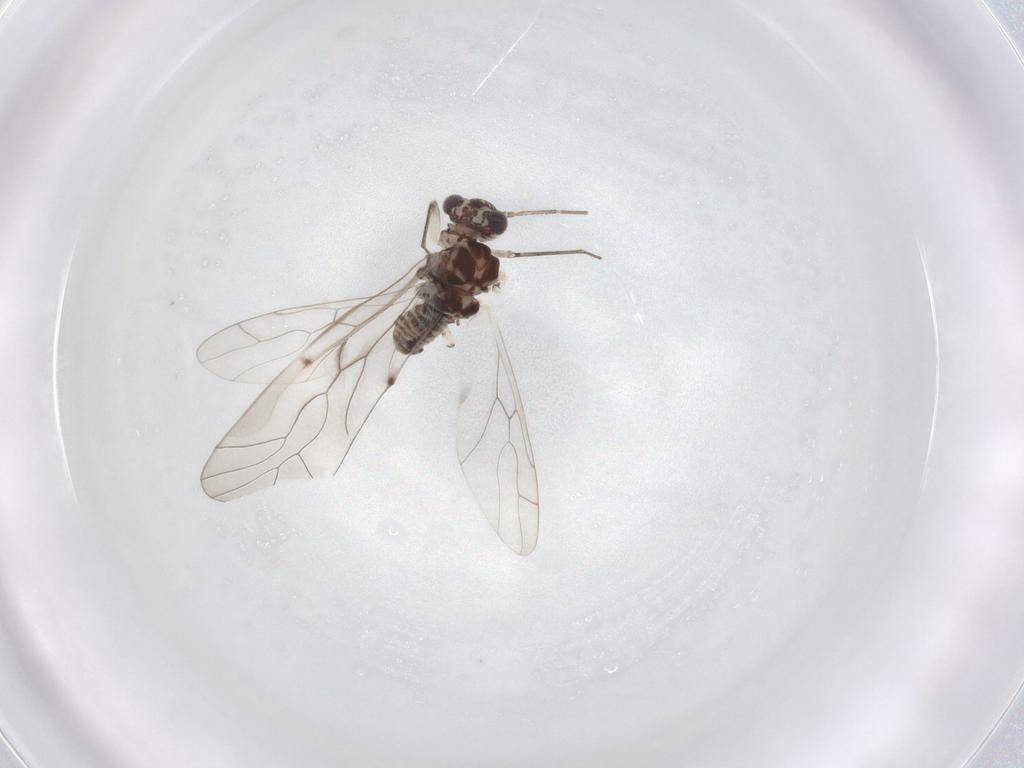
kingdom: Animalia
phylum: Arthropoda
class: Insecta
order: Psocodea
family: Peripsocidae
